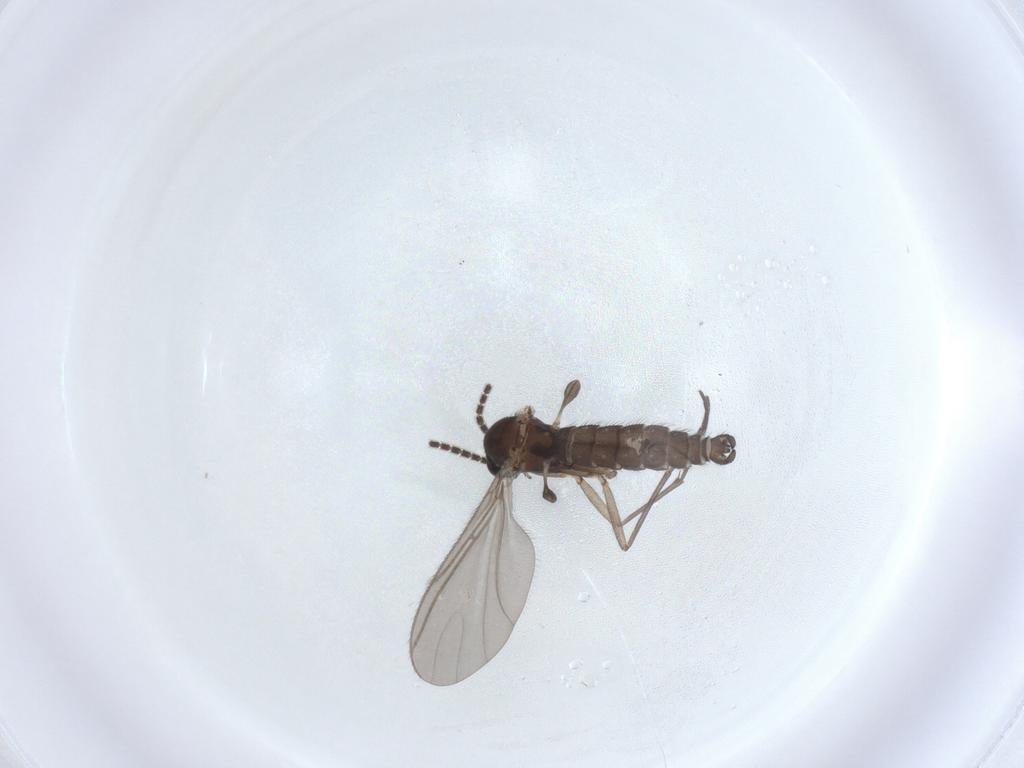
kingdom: Animalia
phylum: Arthropoda
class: Insecta
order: Diptera
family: Sciaridae
